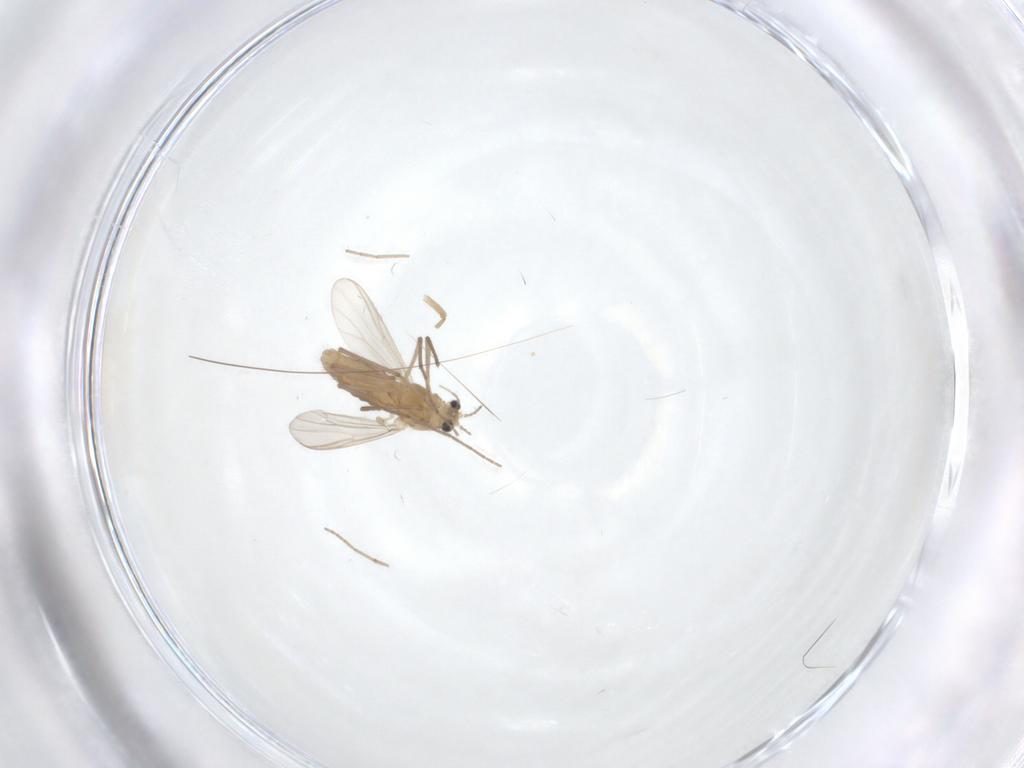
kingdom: Animalia
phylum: Arthropoda
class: Insecta
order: Diptera
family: Chironomidae
